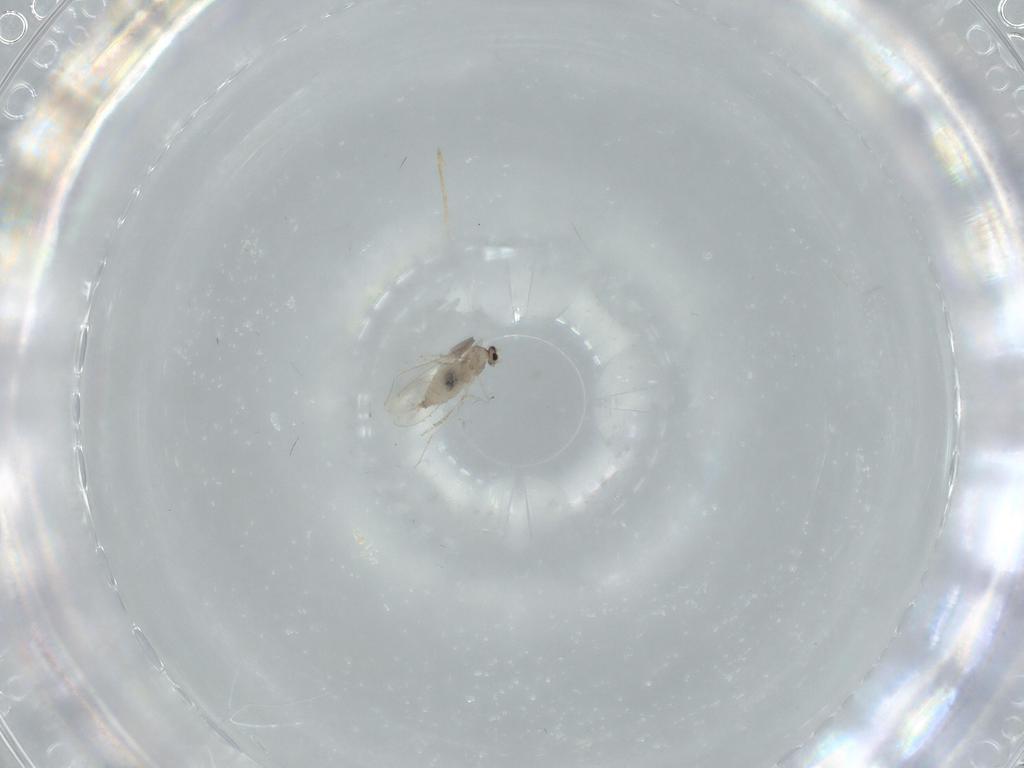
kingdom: Animalia
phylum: Arthropoda
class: Insecta
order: Diptera
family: Cecidomyiidae
